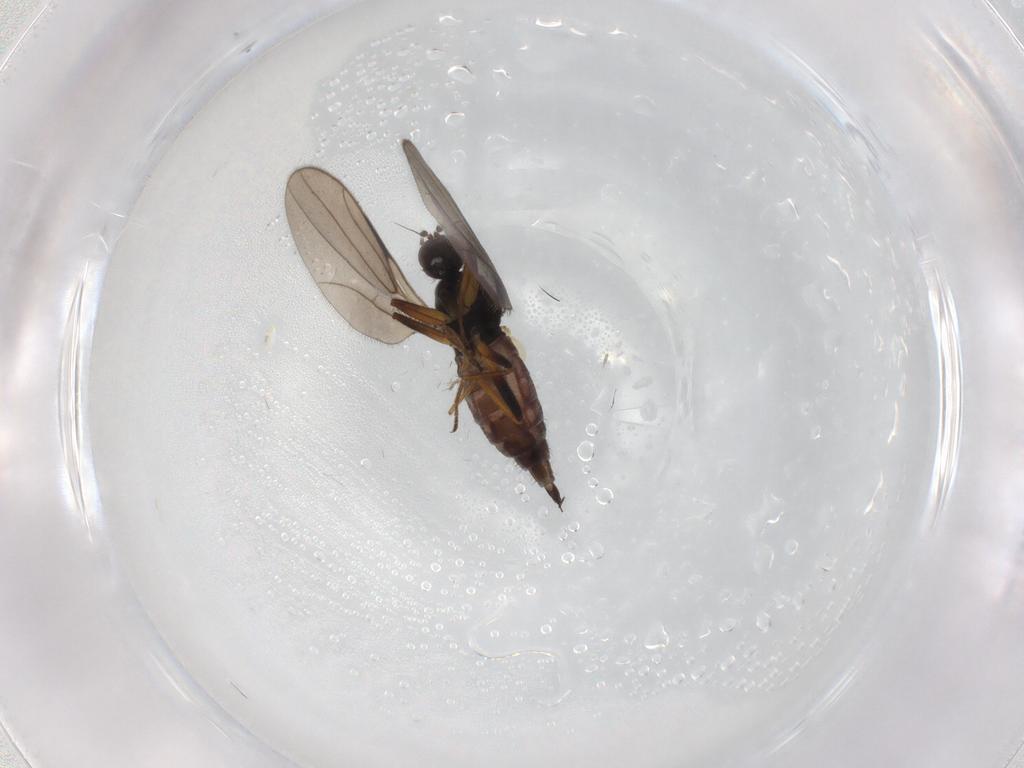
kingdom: Animalia
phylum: Arthropoda
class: Insecta
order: Diptera
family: Hybotidae
